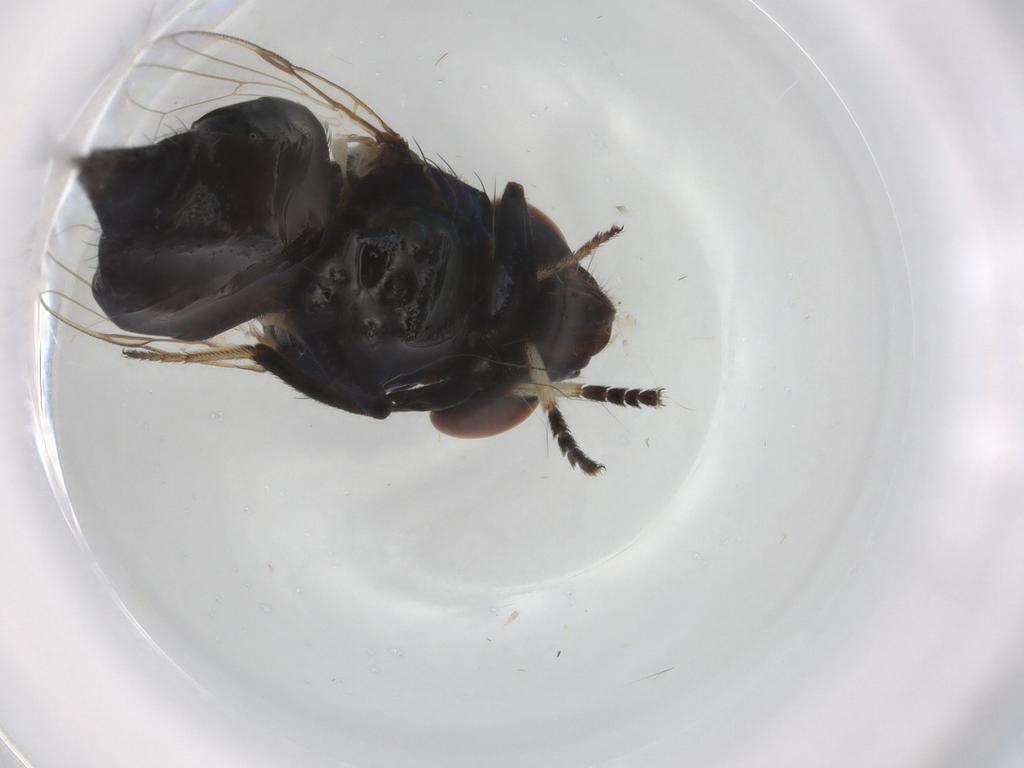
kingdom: Animalia
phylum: Arthropoda
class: Insecta
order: Diptera
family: Ulidiidae
